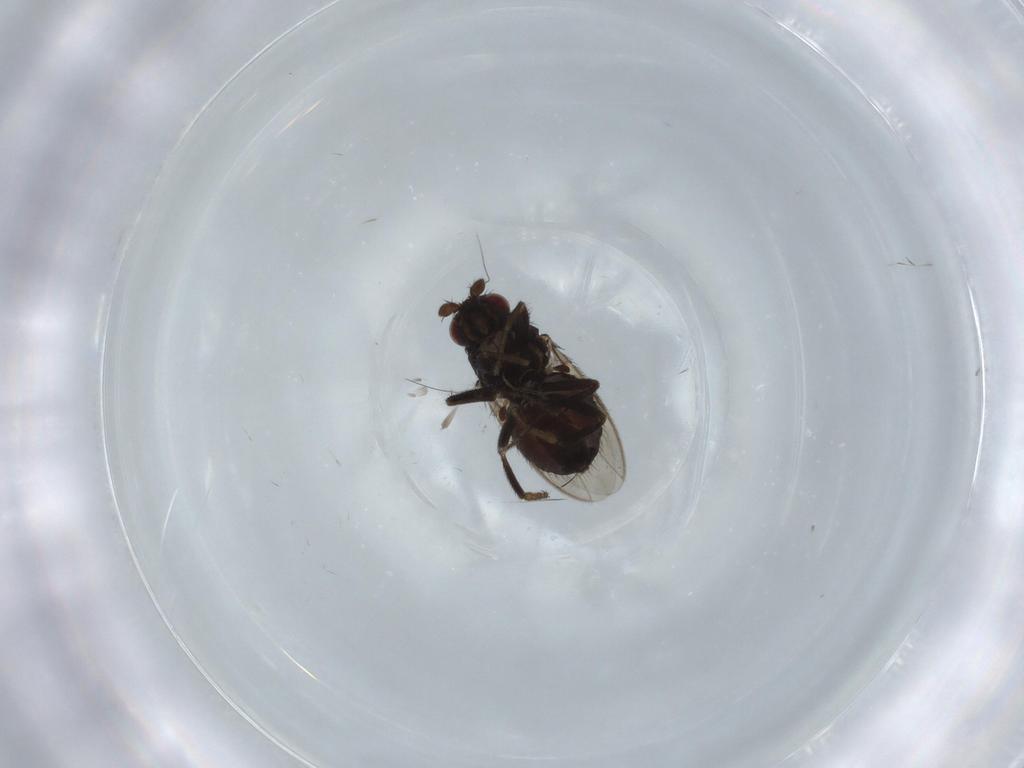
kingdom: Animalia
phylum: Arthropoda
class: Insecta
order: Diptera
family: Sphaeroceridae
